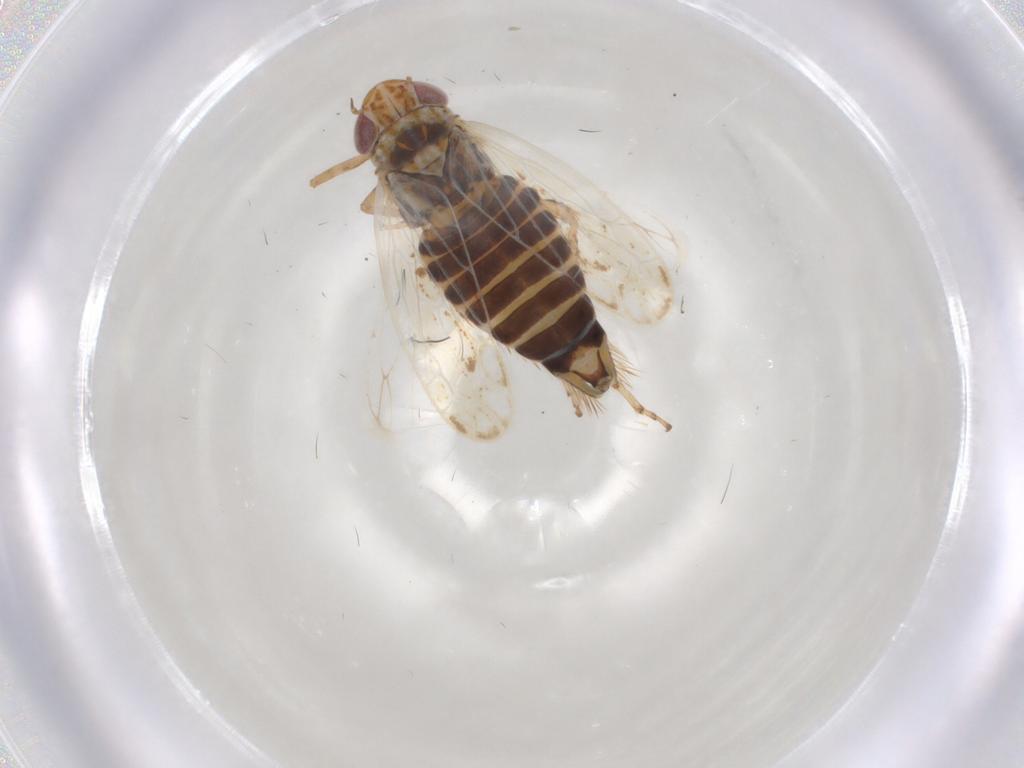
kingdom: Animalia
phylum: Arthropoda
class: Insecta
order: Hemiptera
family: Cicadellidae
